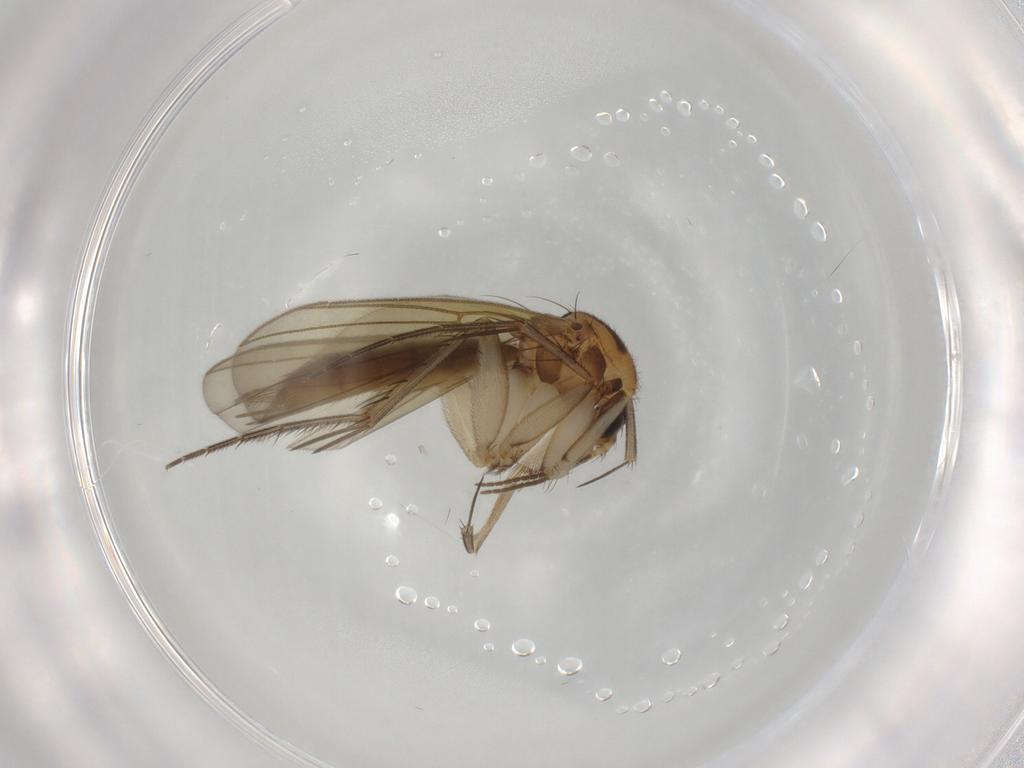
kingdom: Animalia
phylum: Arthropoda
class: Insecta
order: Diptera
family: Mycetophilidae
